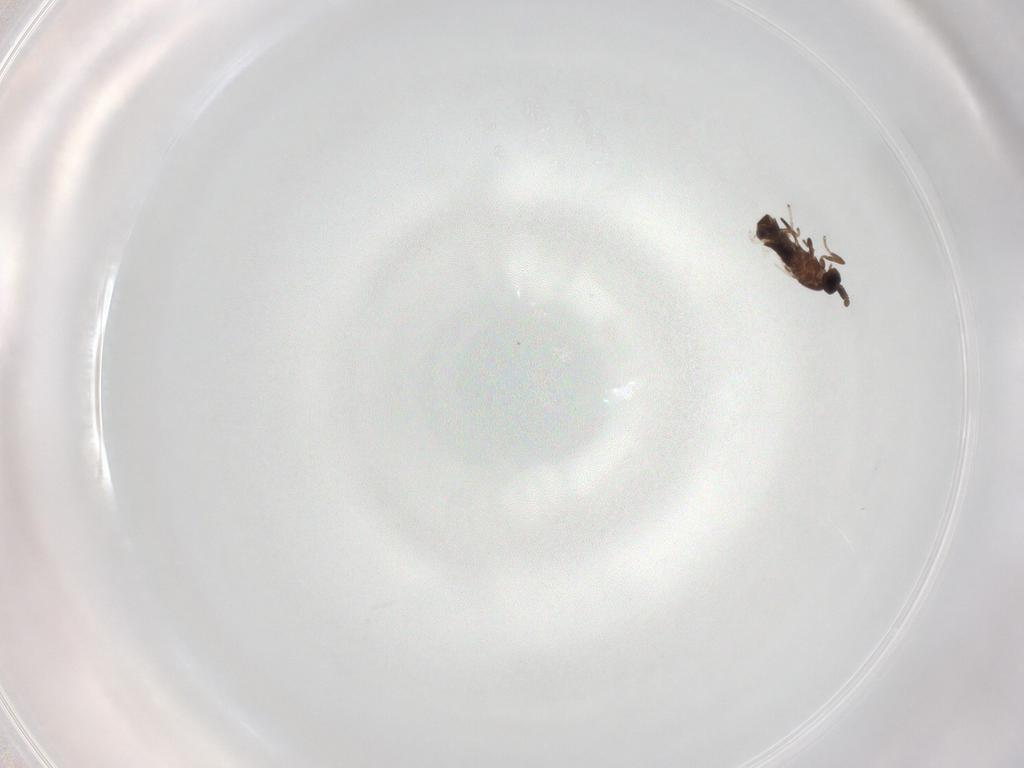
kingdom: Animalia
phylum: Arthropoda
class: Insecta
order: Diptera
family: Scatopsidae
